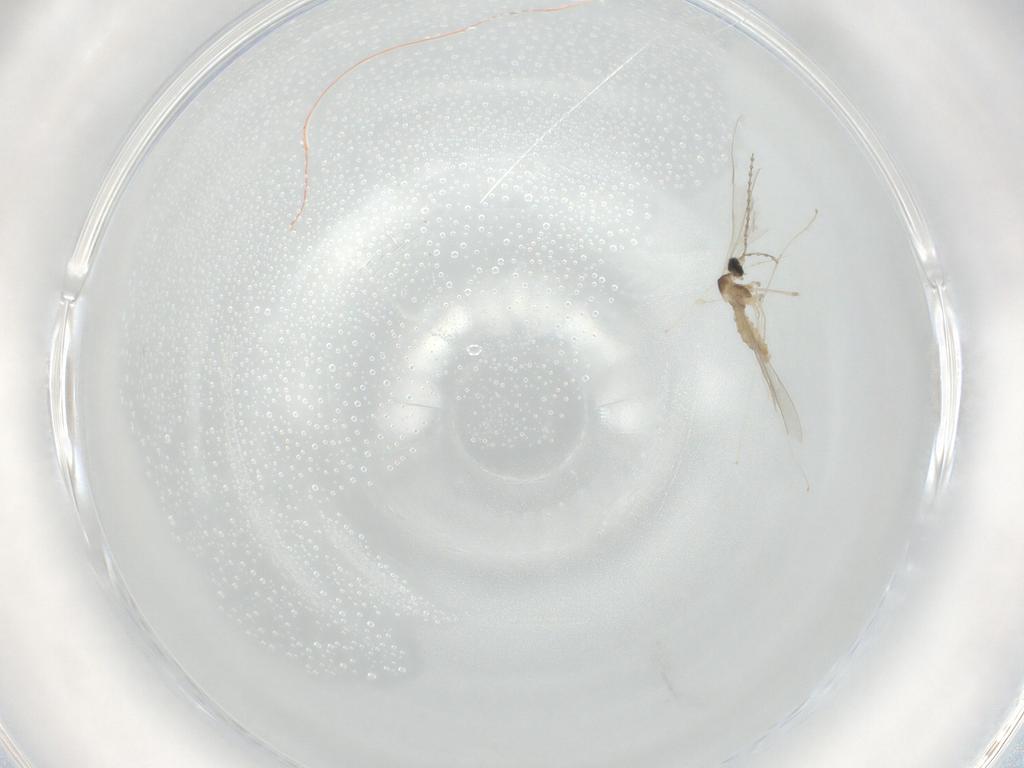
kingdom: Animalia
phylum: Arthropoda
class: Insecta
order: Diptera
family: Cecidomyiidae
